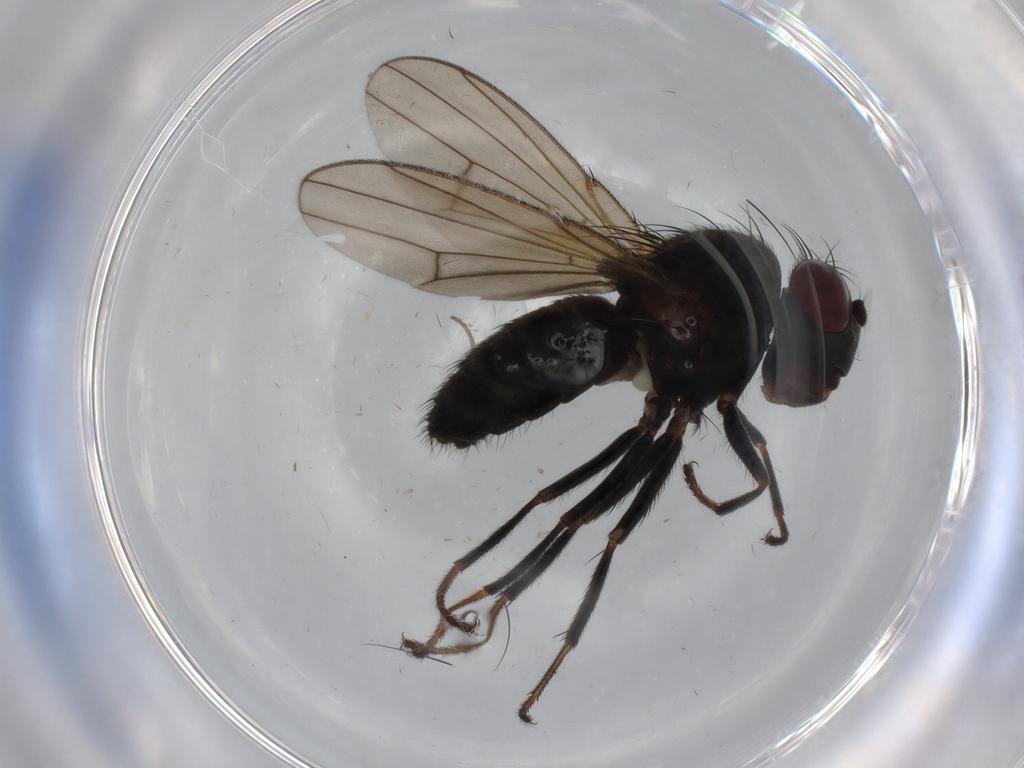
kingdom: Animalia
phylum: Arthropoda
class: Insecta
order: Diptera
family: Ephydridae
